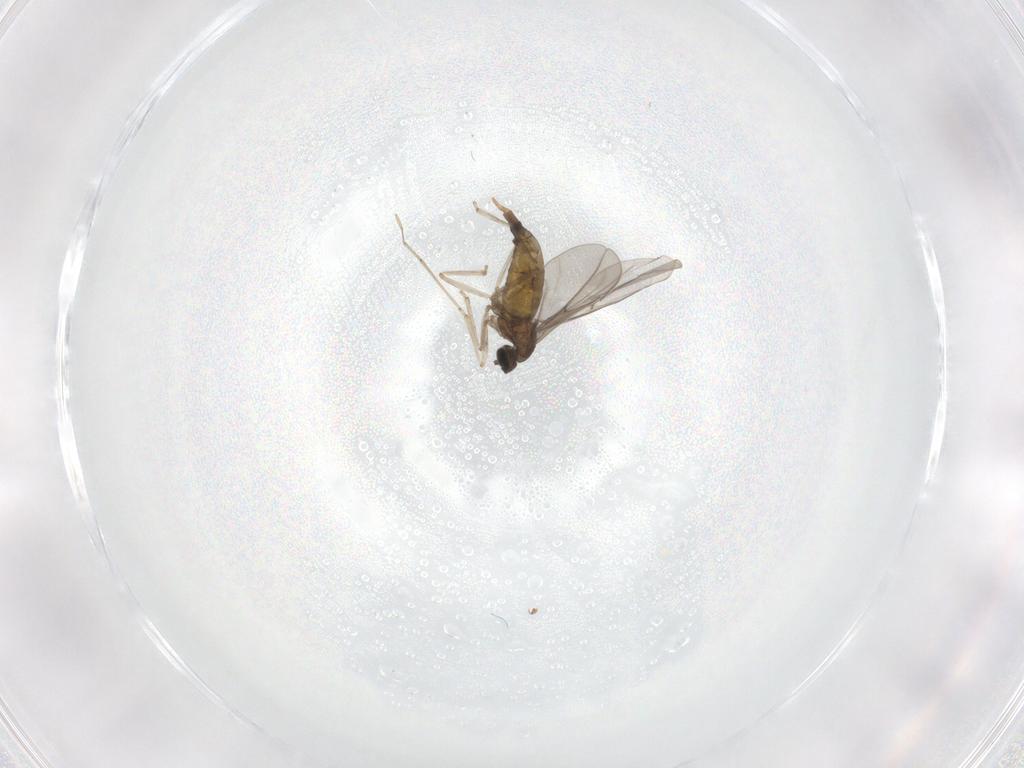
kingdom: Animalia
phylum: Arthropoda
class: Insecta
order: Diptera
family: Cecidomyiidae
